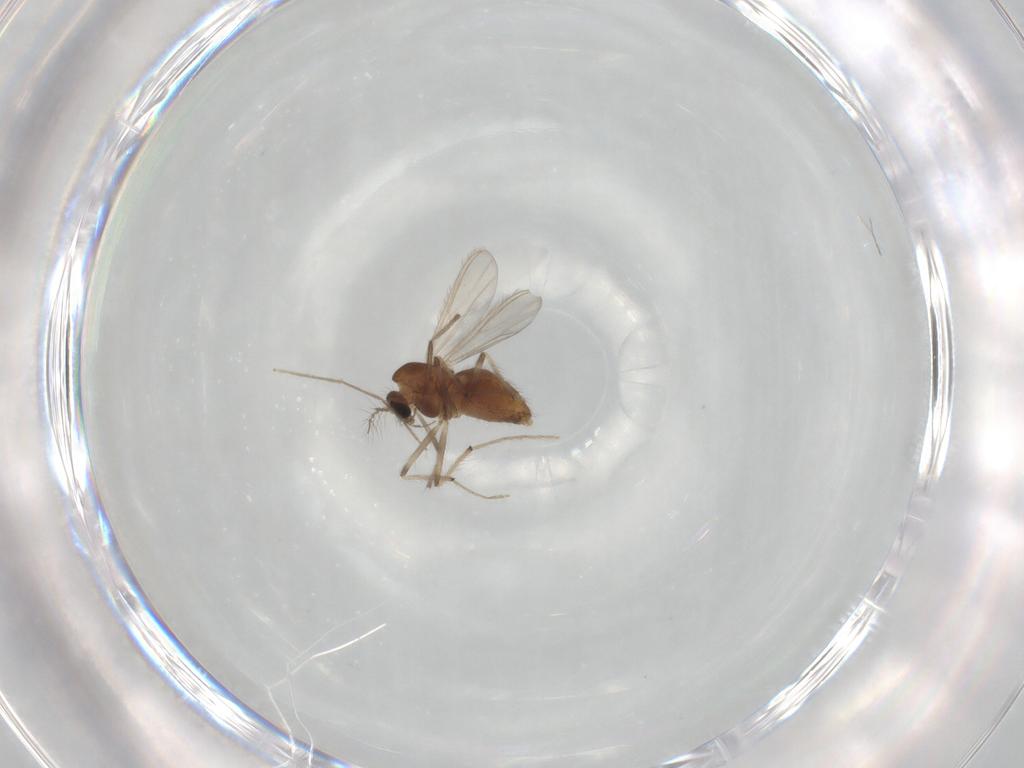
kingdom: Animalia
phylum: Arthropoda
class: Insecta
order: Diptera
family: Chironomidae
